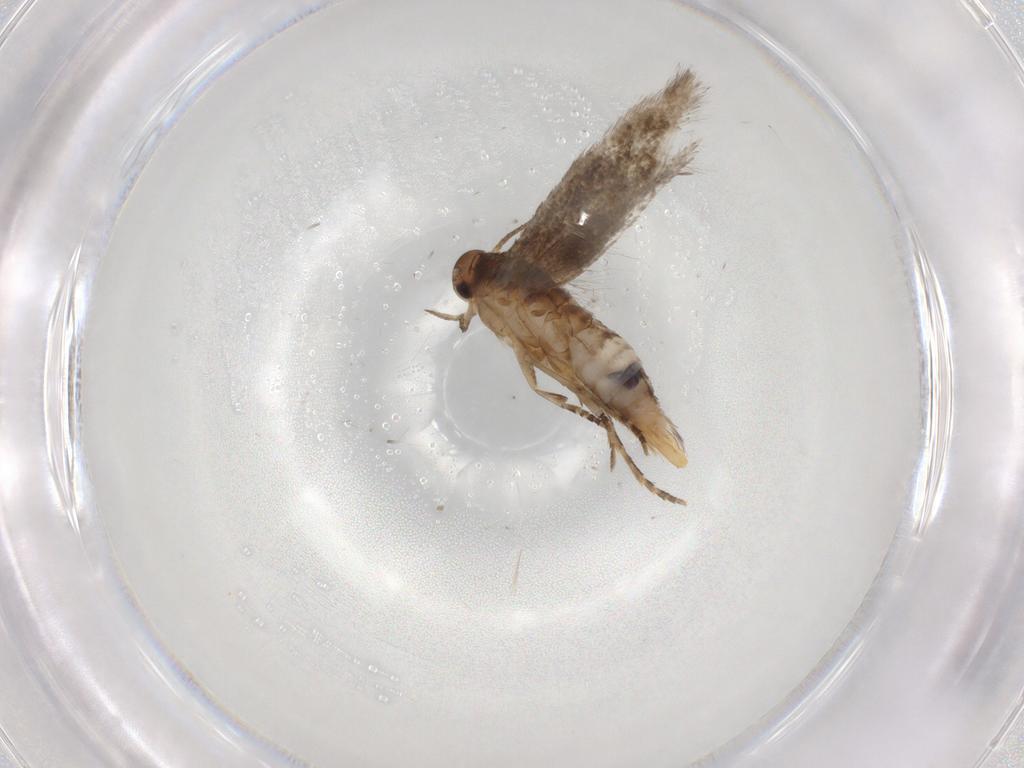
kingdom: Animalia
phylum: Arthropoda
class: Insecta
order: Lepidoptera
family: Elachistidae
